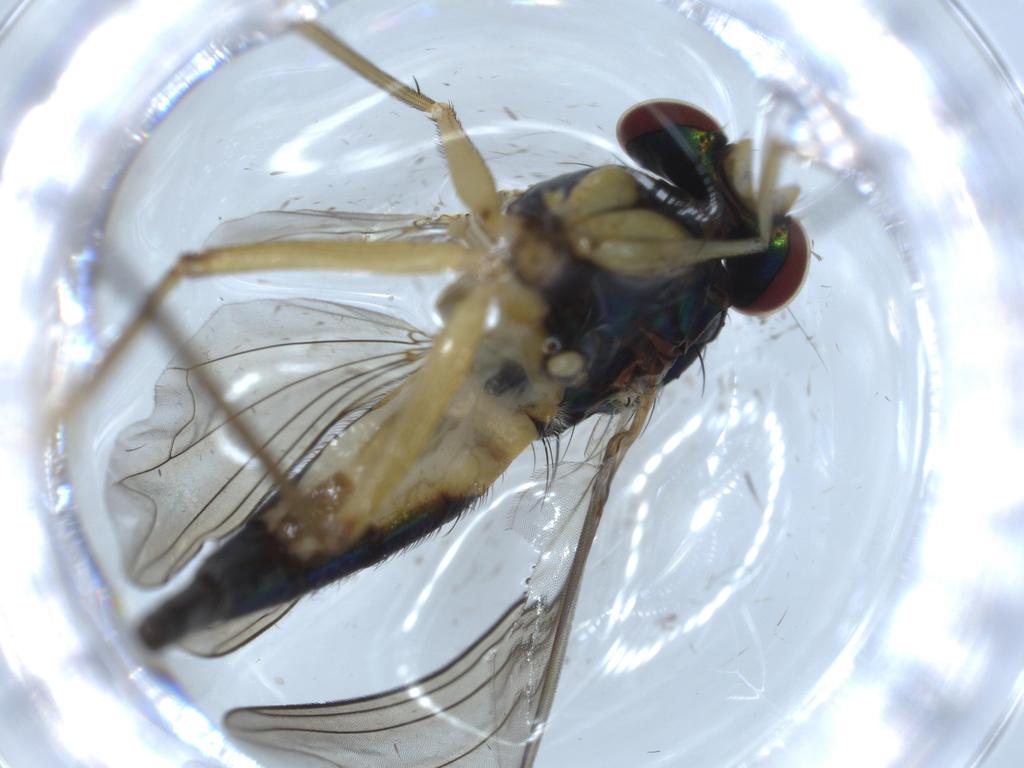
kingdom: Animalia
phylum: Arthropoda
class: Insecta
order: Diptera
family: Dolichopodidae
